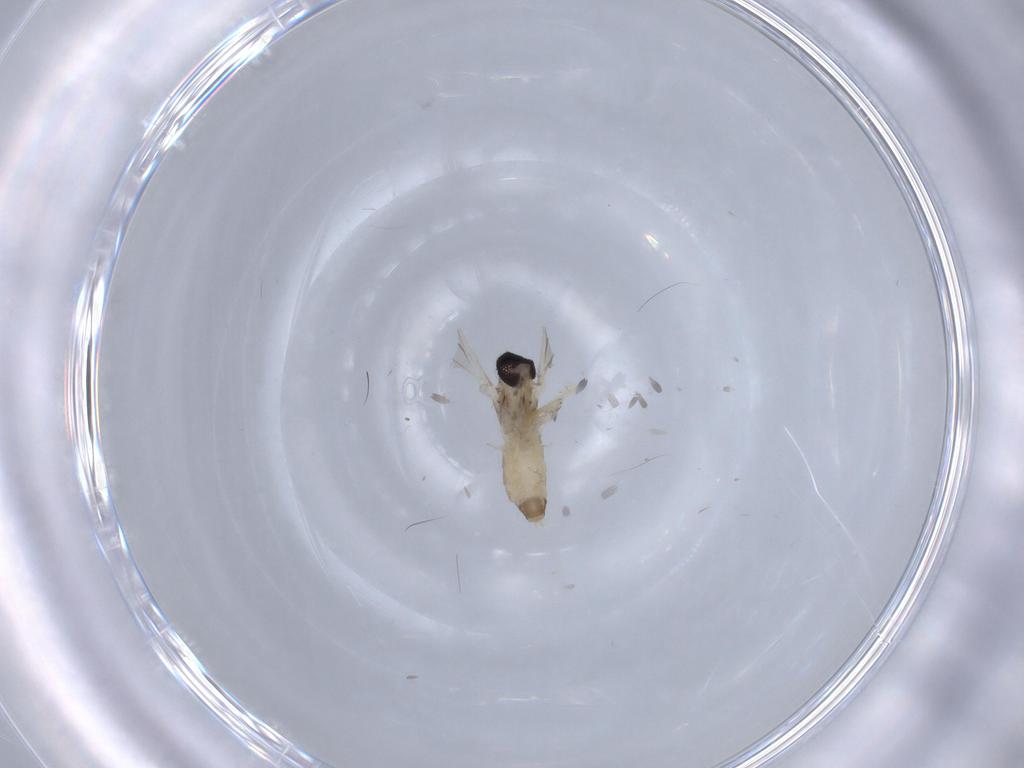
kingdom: Animalia
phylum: Arthropoda
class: Insecta
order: Diptera
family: Cecidomyiidae
